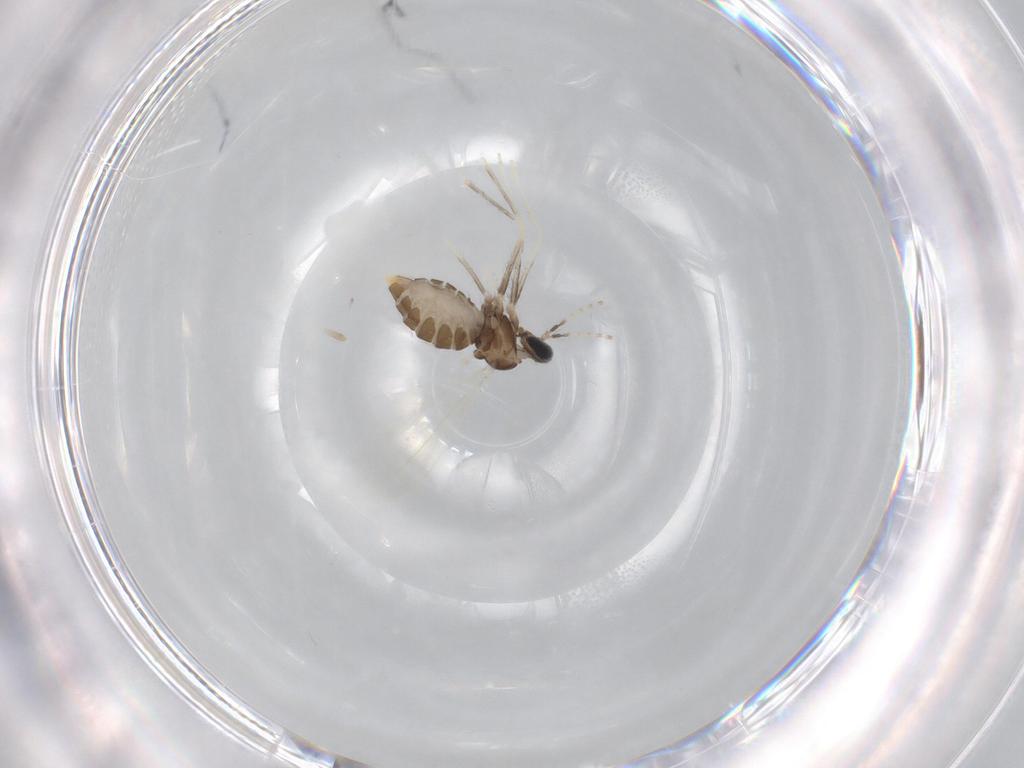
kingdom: Animalia
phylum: Arthropoda
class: Insecta
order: Diptera
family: Cecidomyiidae
